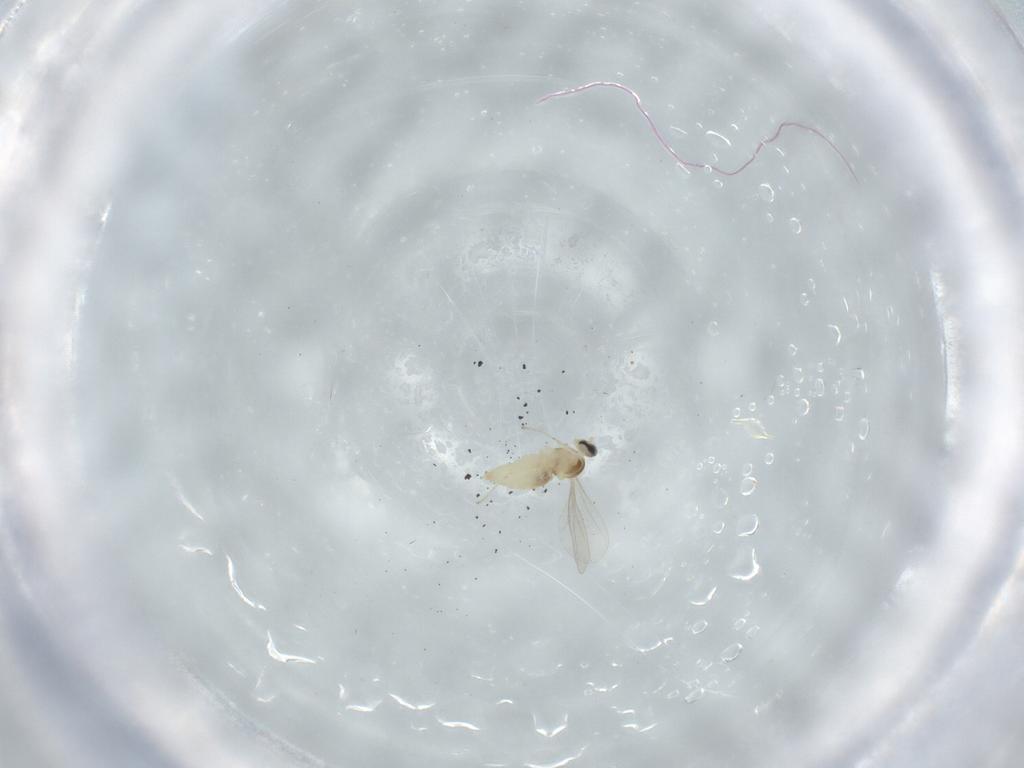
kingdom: Animalia
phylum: Arthropoda
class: Insecta
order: Diptera
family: Cecidomyiidae
